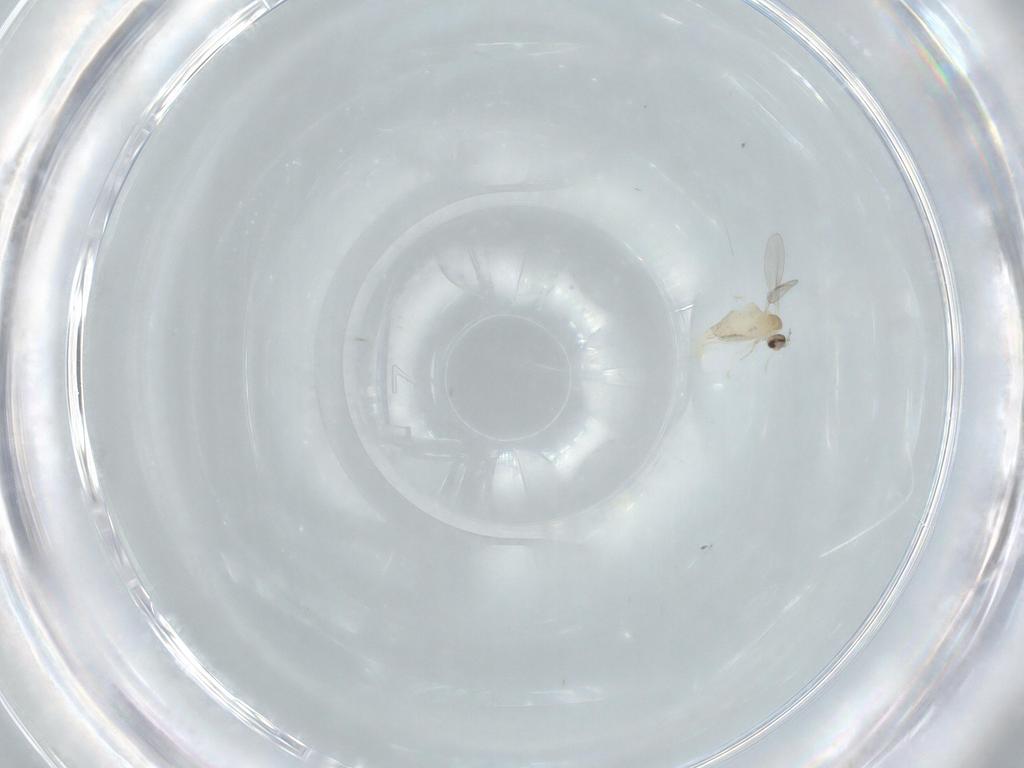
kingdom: Animalia
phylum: Arthropoda
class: Insecta
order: Diptera
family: Cecidomyiidae
